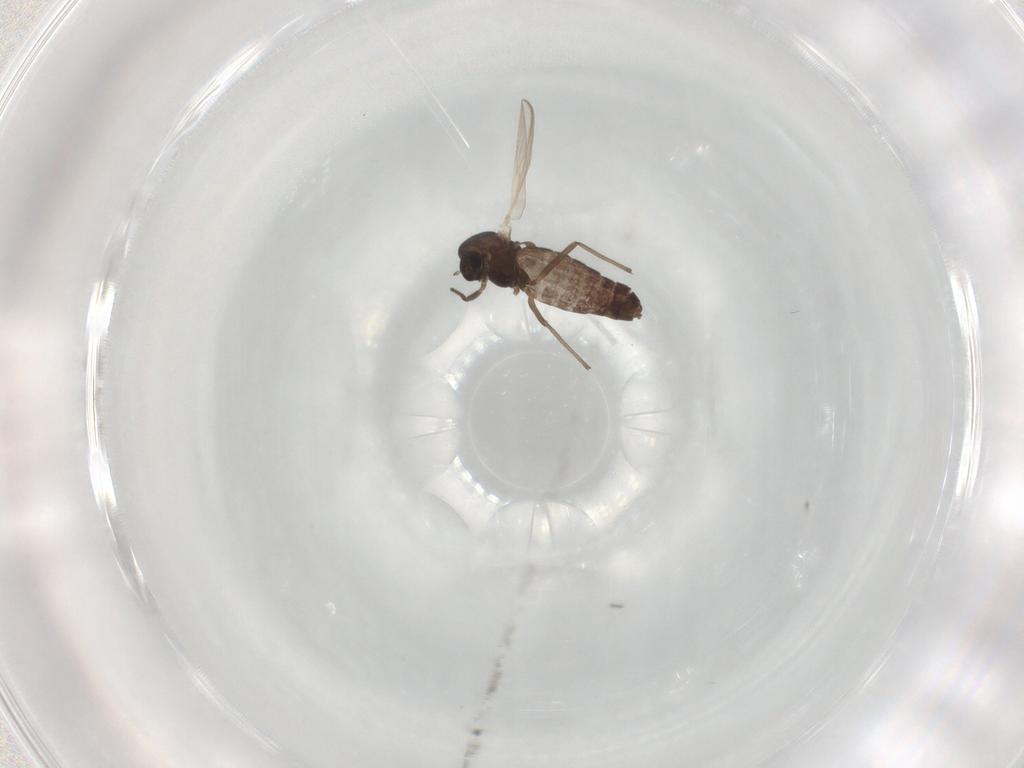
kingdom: Animalia
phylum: Arthropoda
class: Insecta
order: Diptera
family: Chironomidae
